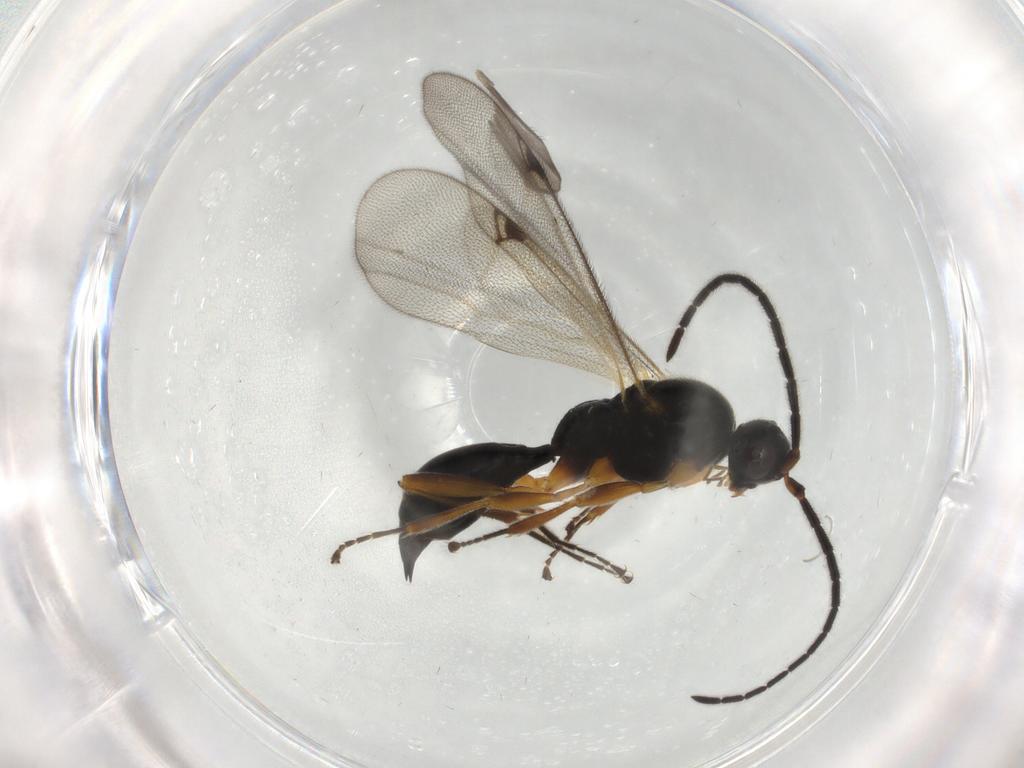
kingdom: Animalia
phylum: Arthropoda
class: Insecta
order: Hymenoptera
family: Proctotrupidae
